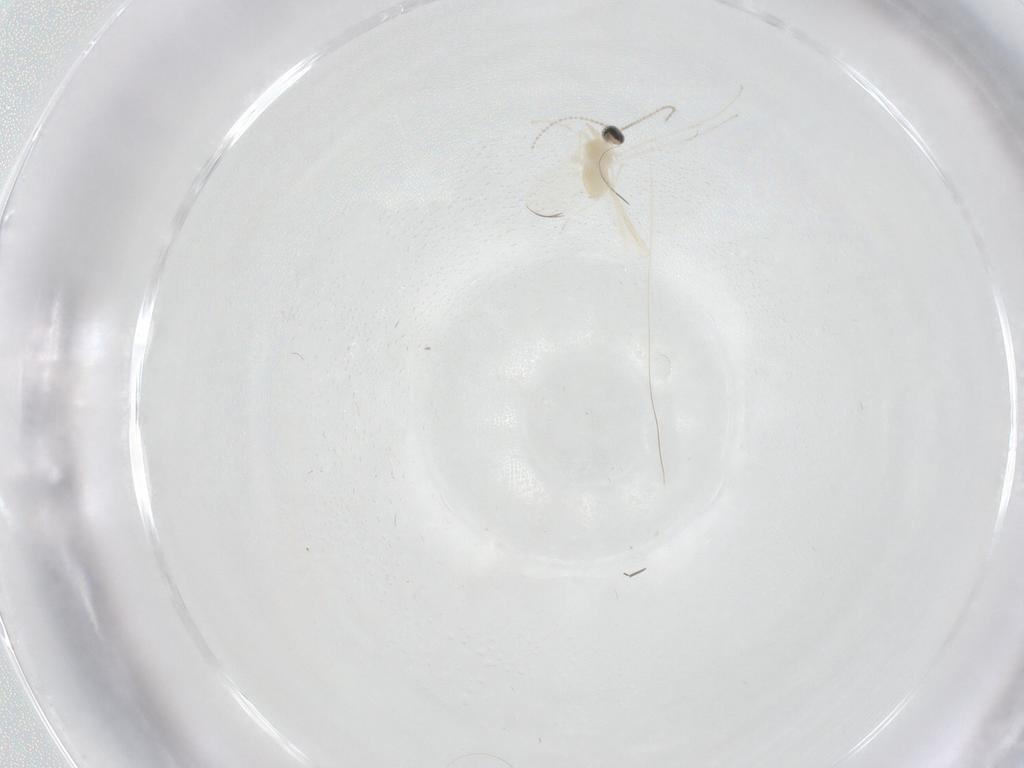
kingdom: Animalia
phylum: Arthropoda
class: Insecta
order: Diptera
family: Cecidomyiidae
